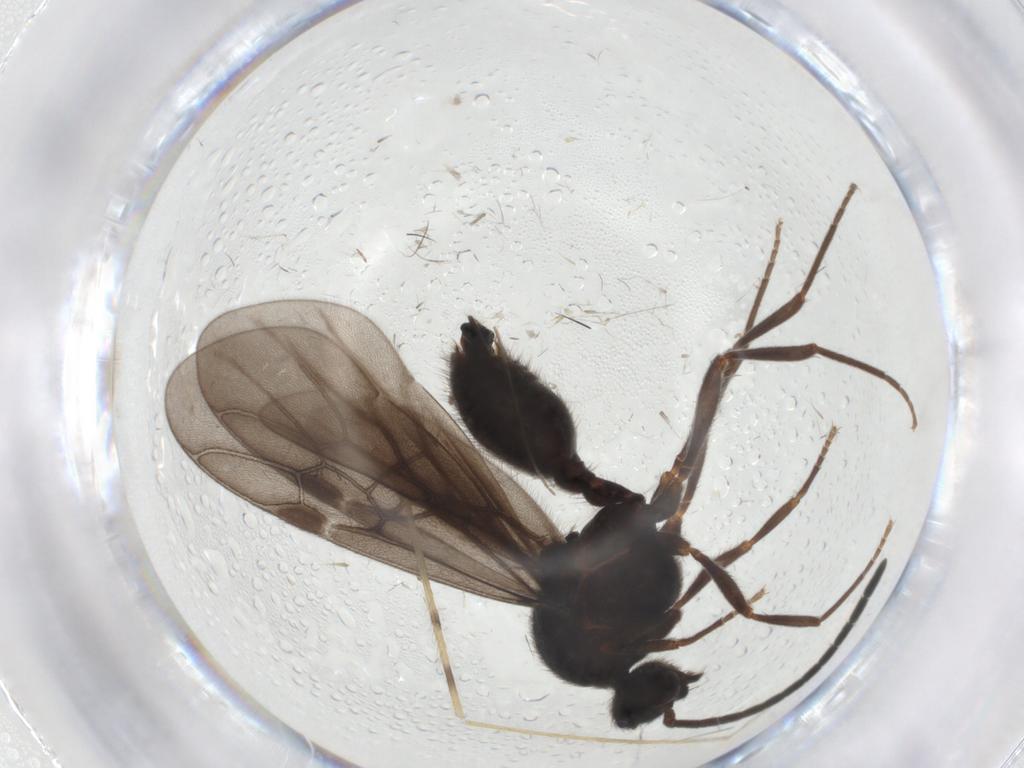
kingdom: Animalia
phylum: Arthropoda
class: Insecta
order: Hymenoptera
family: Formicidae
